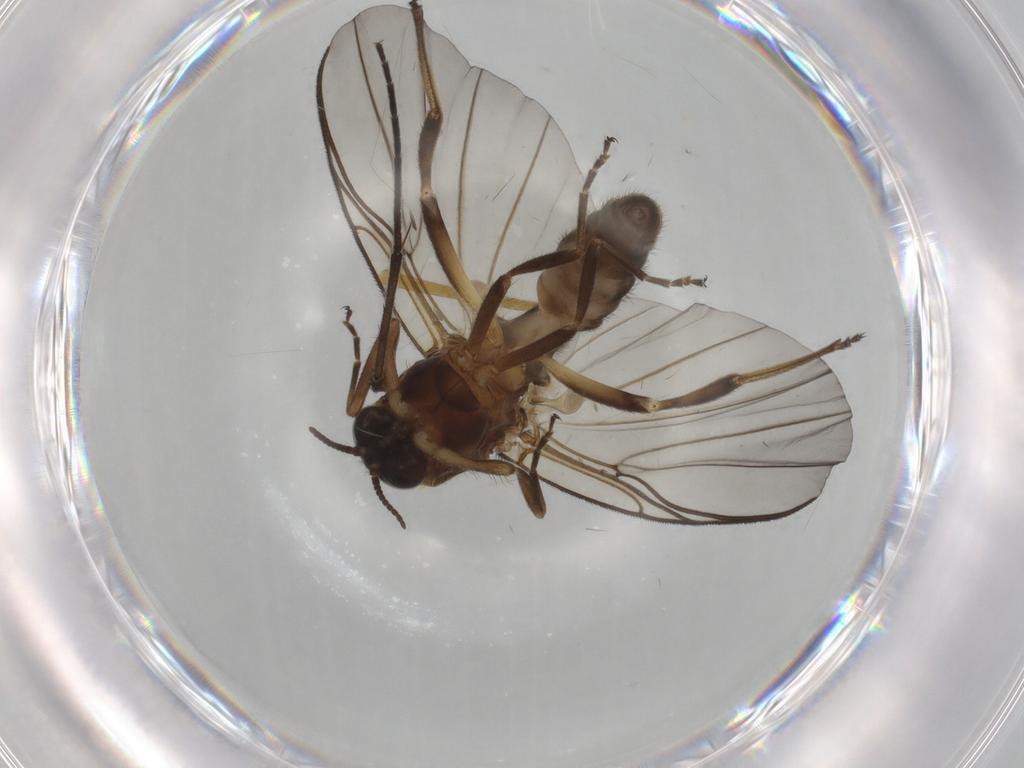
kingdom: Animalia
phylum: Arthropoda
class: Insecta
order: Diptera
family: Cecidomyiidae
